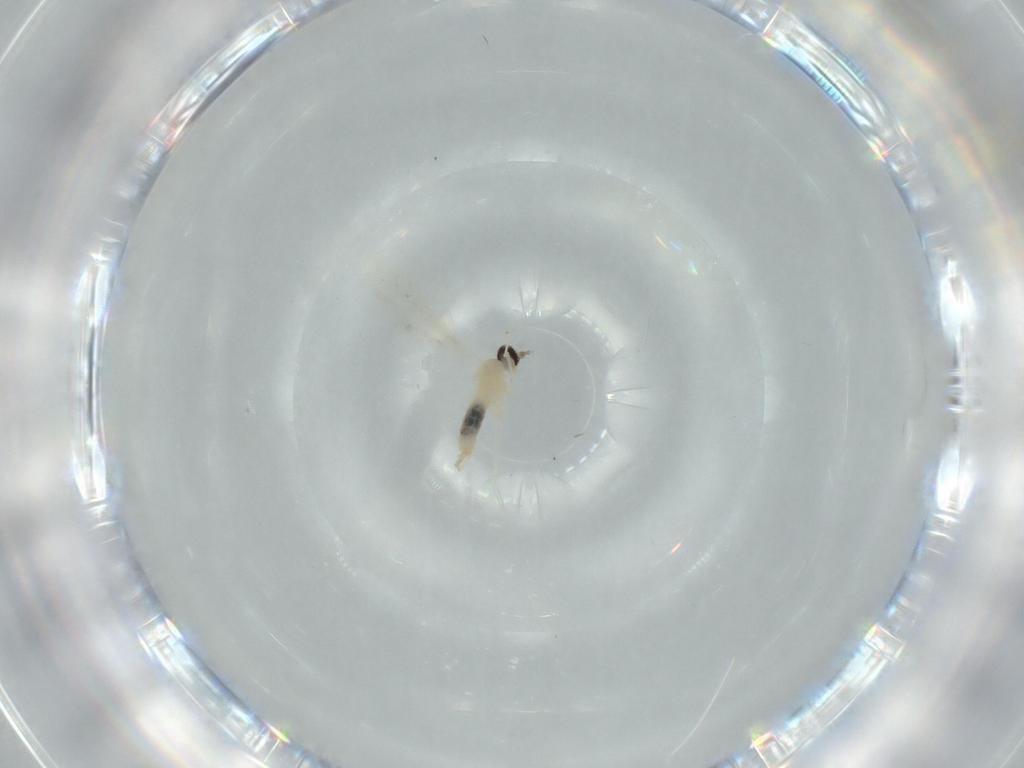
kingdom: Animalia
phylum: Arthropoda
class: Insecta
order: Diptera
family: Cecidomyiidae
